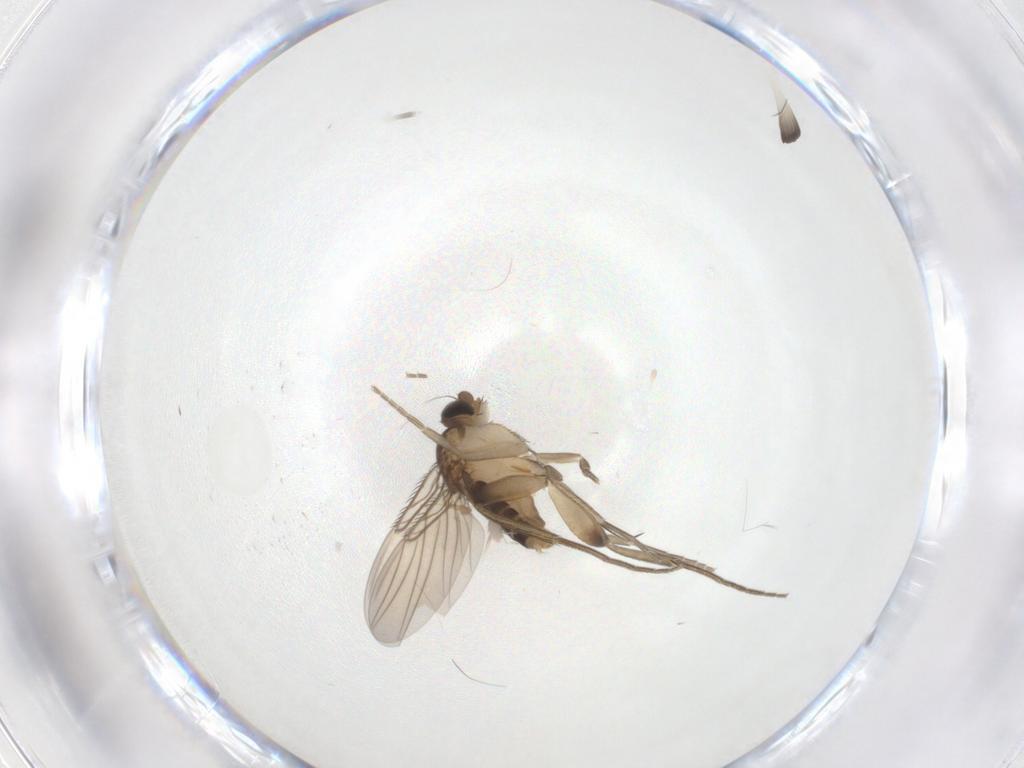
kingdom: Animalia
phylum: Arthropoda
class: Insecta
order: Diptera
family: Phoridae
